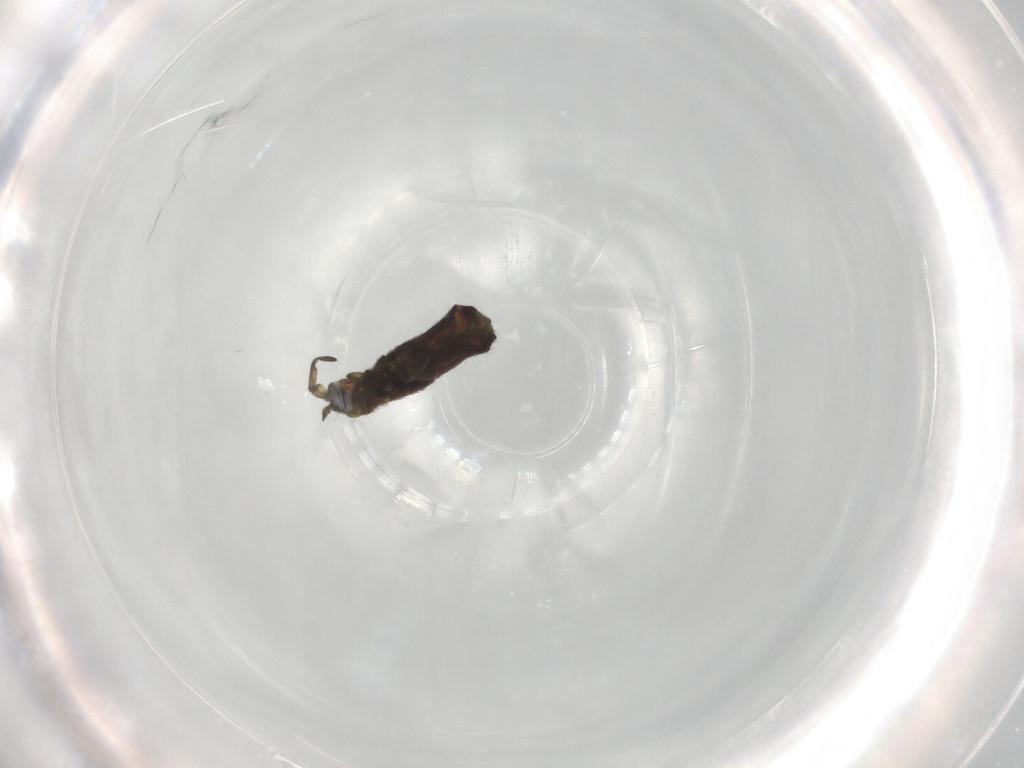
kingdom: Animalia
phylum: Arthropoda
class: Collembola
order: Entomobryomorpha
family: Isotomidae
